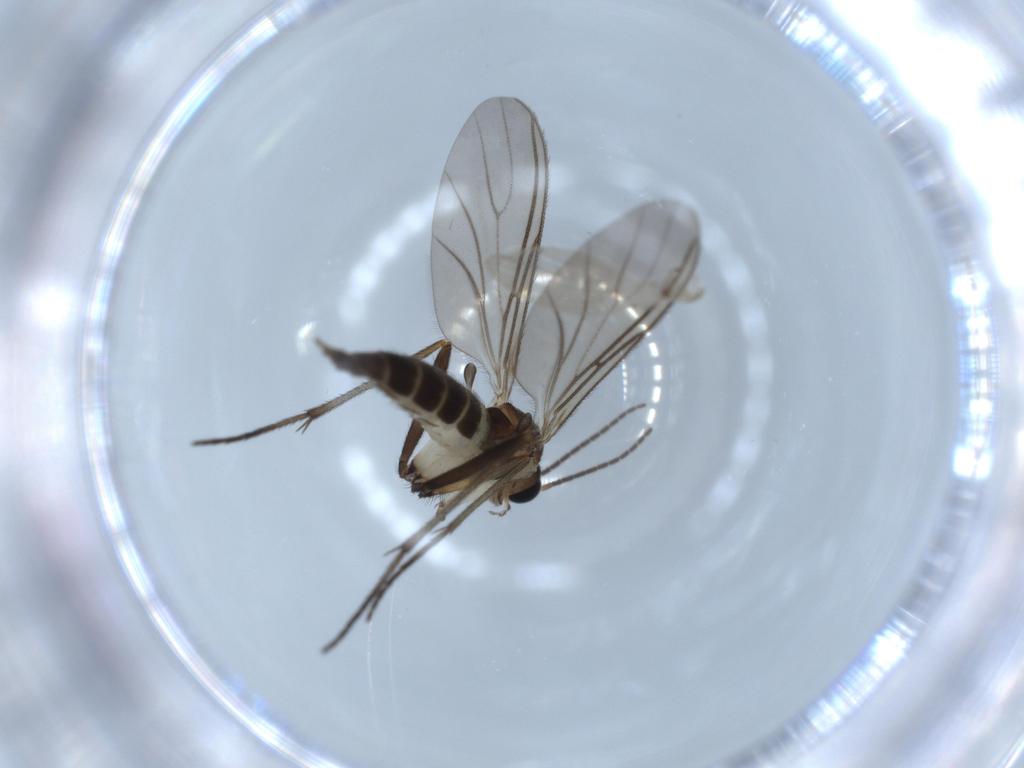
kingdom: Animalia
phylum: Arthropoda
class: Insecta
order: Diptera
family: Sciaridae
